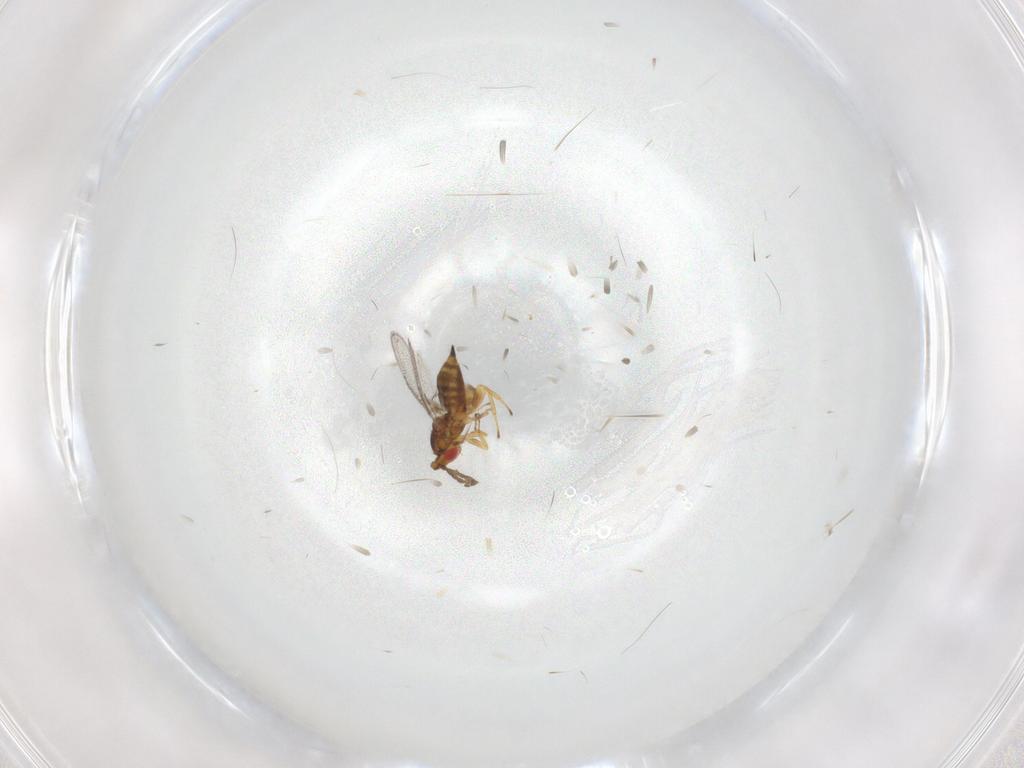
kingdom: Animalia
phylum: Arthropoda
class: Insecta
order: Hymenoptera
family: Eulophidae
